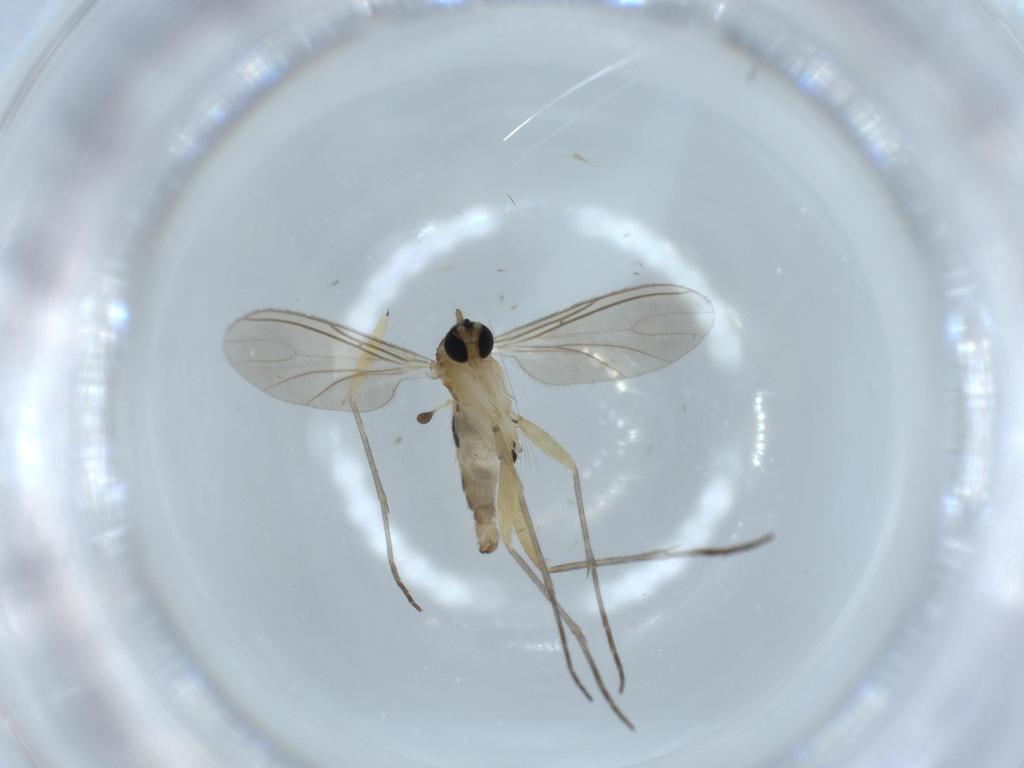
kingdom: Animalia
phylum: Arthropoda
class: Insecta
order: Diptera
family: Sciaridae
